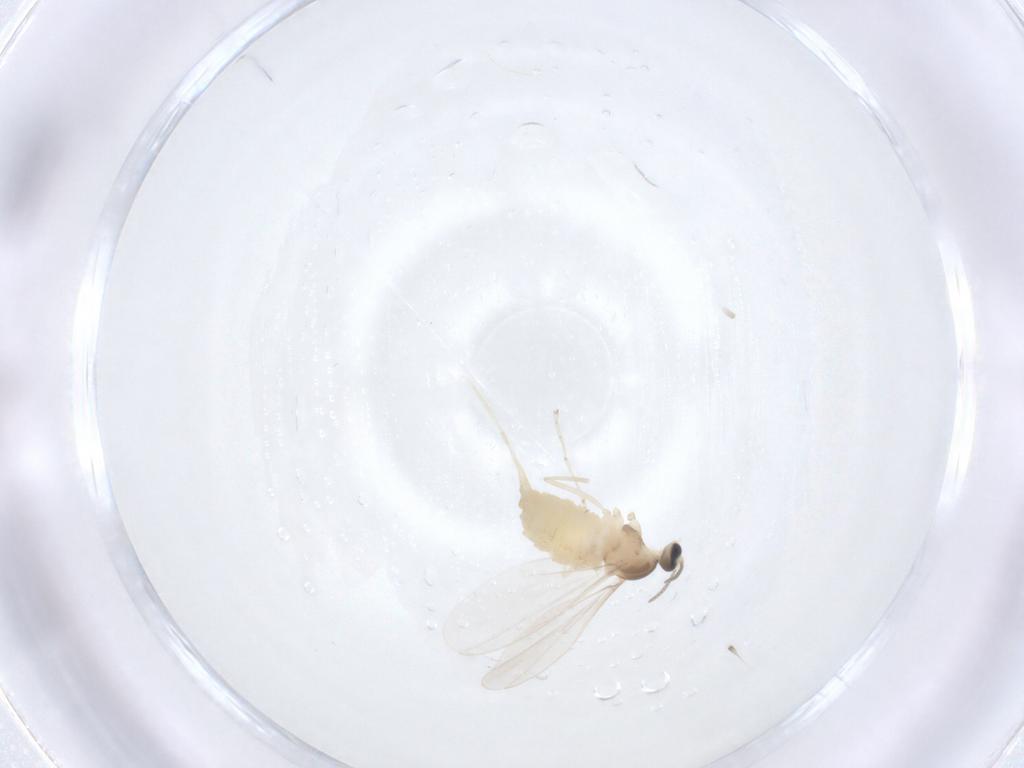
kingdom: Animalia
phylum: Arthropoda
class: Insecta
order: Diptera
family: Cecidomyiidae
